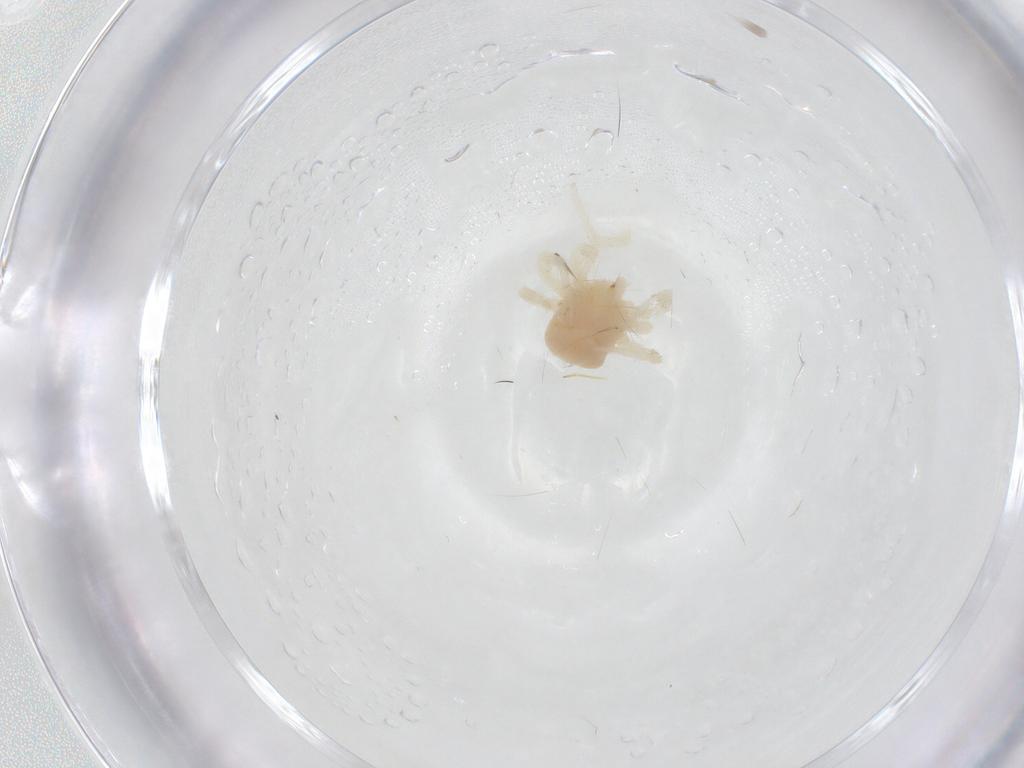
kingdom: Animalia
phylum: Arthropoda
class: Arachnida
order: Trombidiformes
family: Anystidae
